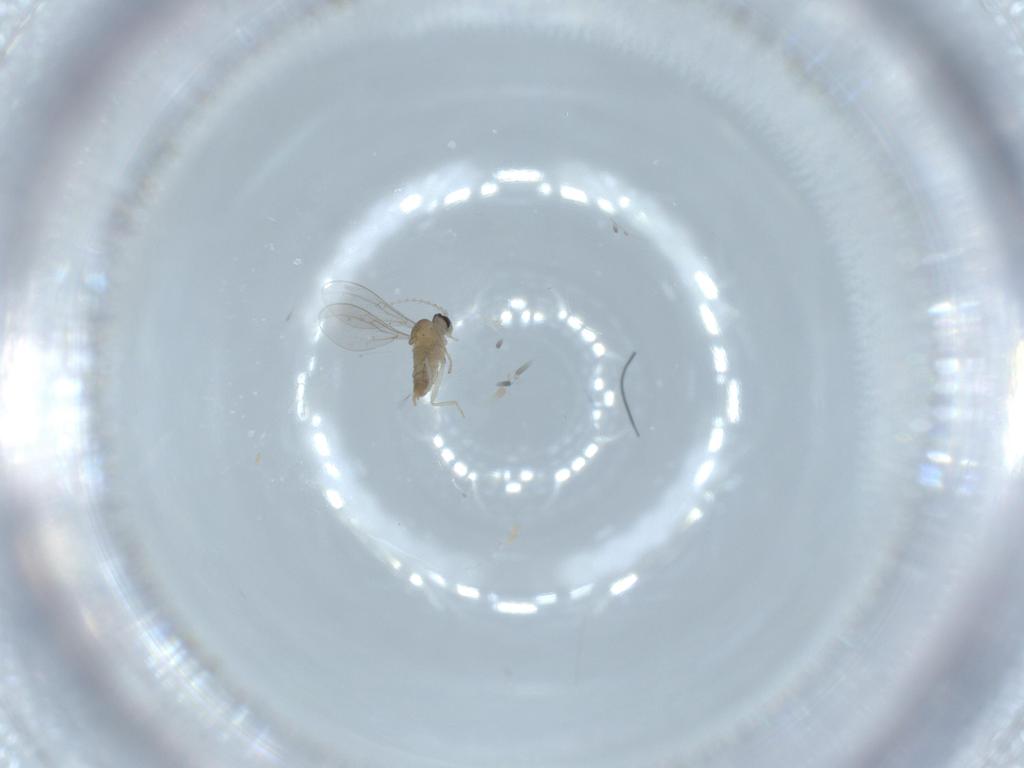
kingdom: Animalia
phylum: Arthropoda
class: Insecta
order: Diptera
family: Cecidomyiidae
